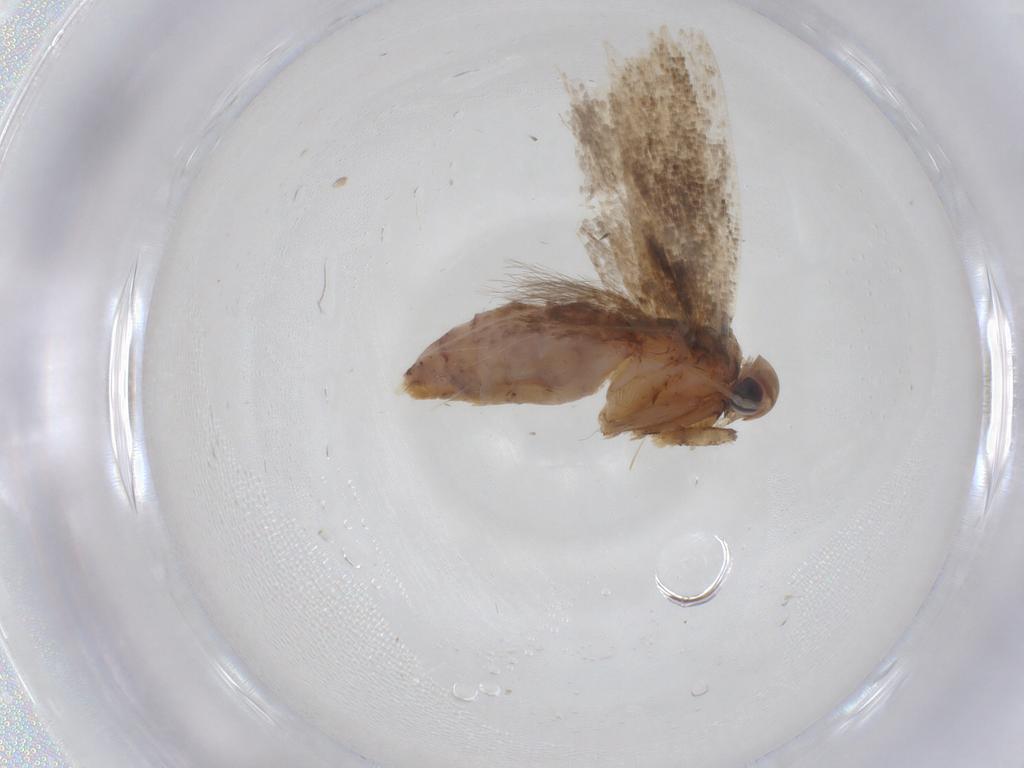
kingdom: Animalia
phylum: Arthropoda
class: Insecta
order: Lepidoptera
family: Gelechiidae
